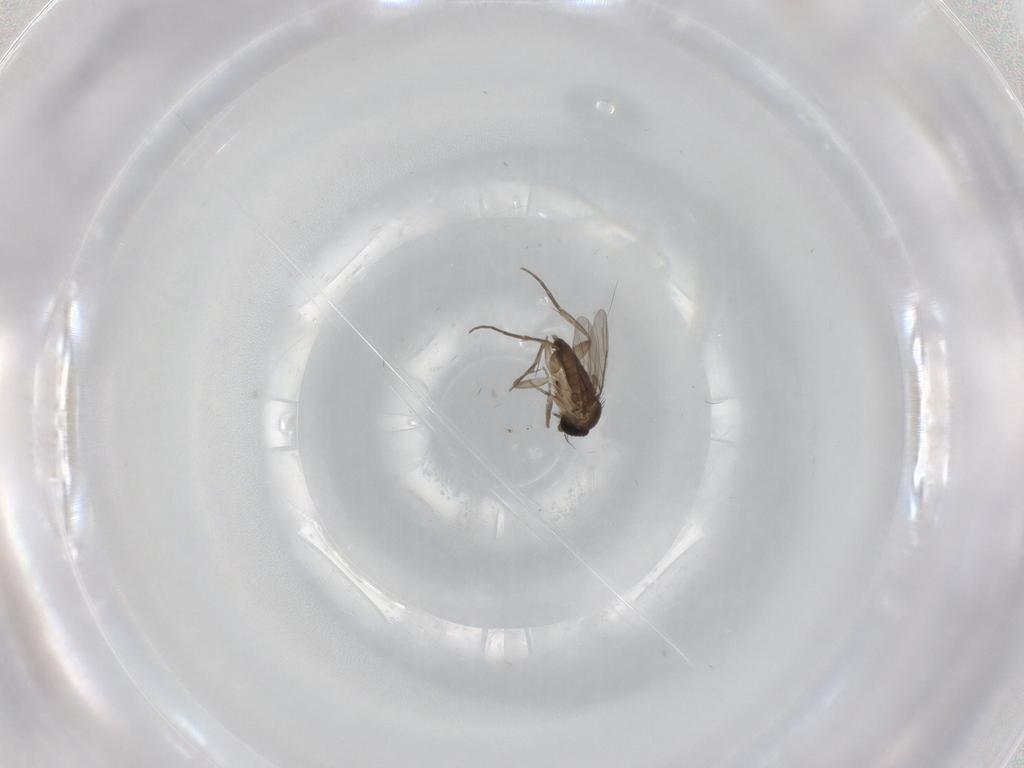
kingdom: Animalia
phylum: Arthropoda
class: Insecta
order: Diptera
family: Phoridae
